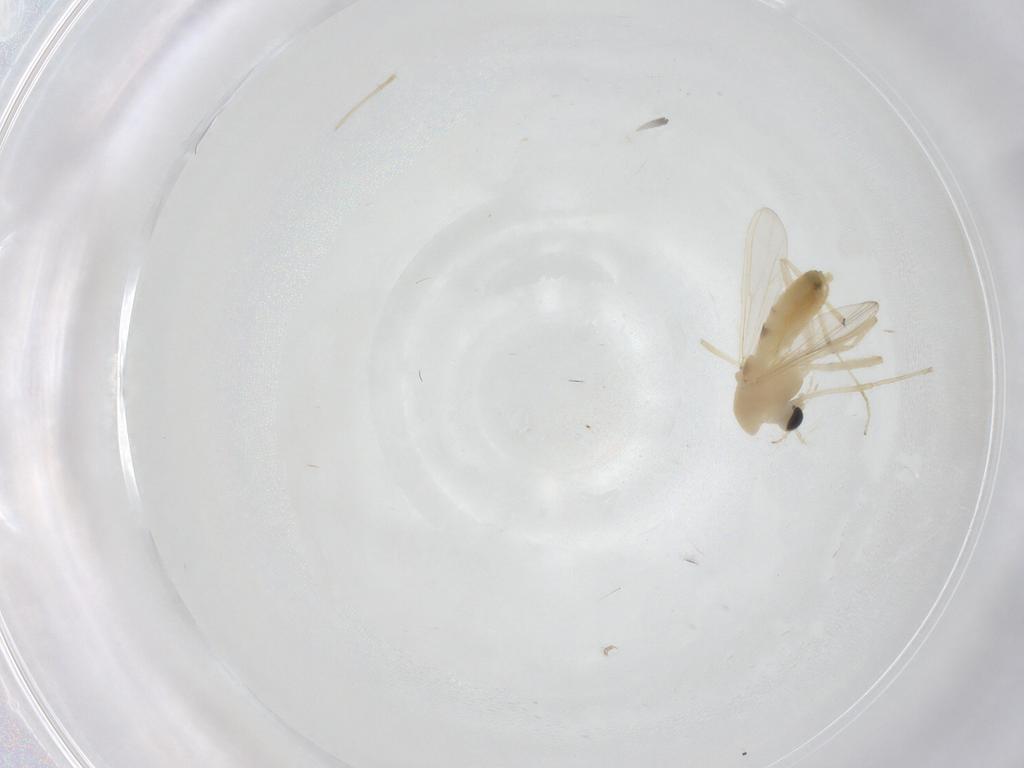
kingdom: Animalia
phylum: Arthropoda
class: Insecta
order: Diptera
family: Chironomidae
